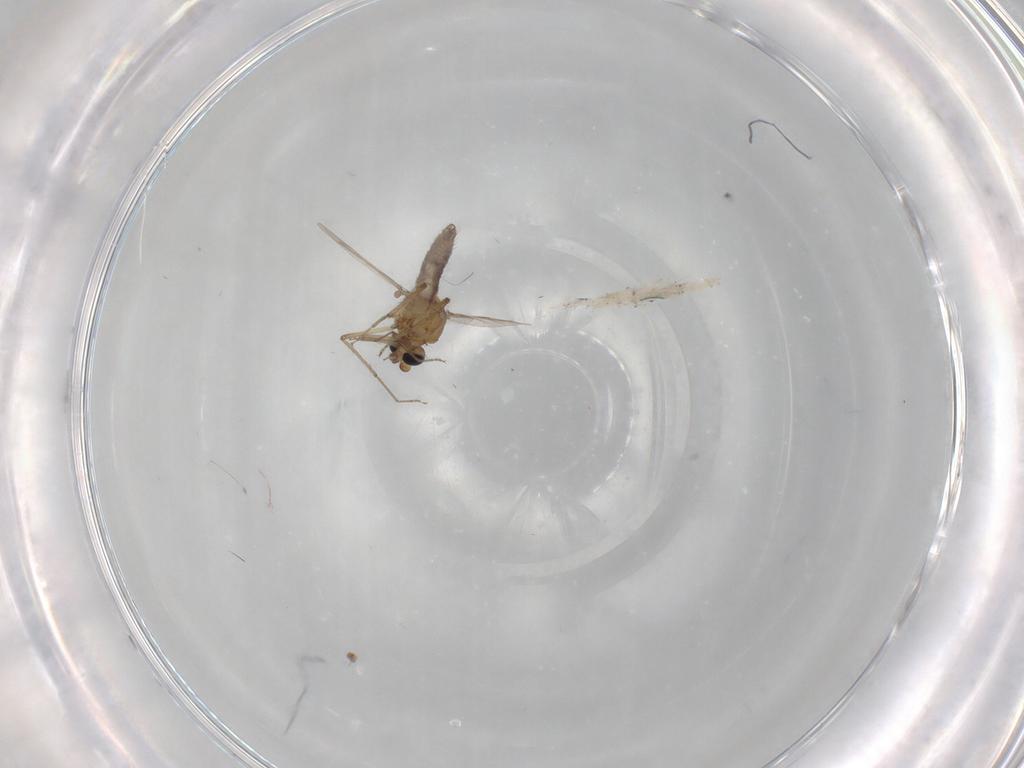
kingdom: Animalia
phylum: Arthropoda
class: Insecta
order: Diptera
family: Ceratopogonidae
